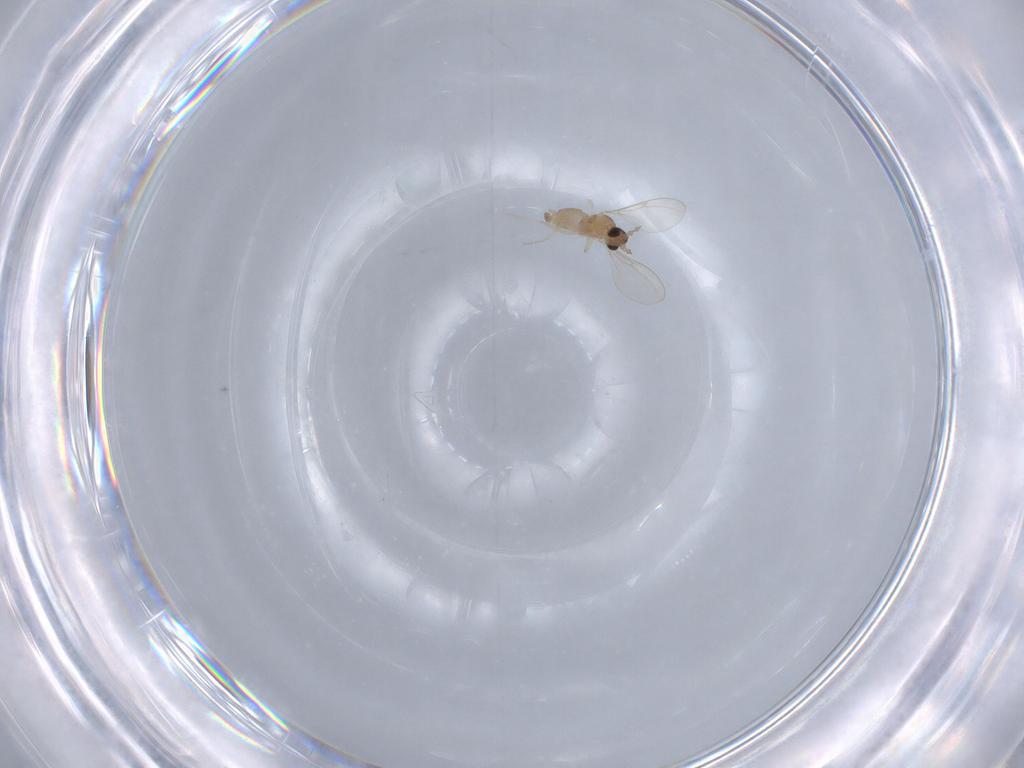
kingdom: Animalia
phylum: Arthropoda
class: Insecta
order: Diptera
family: Cecidomyiidae
